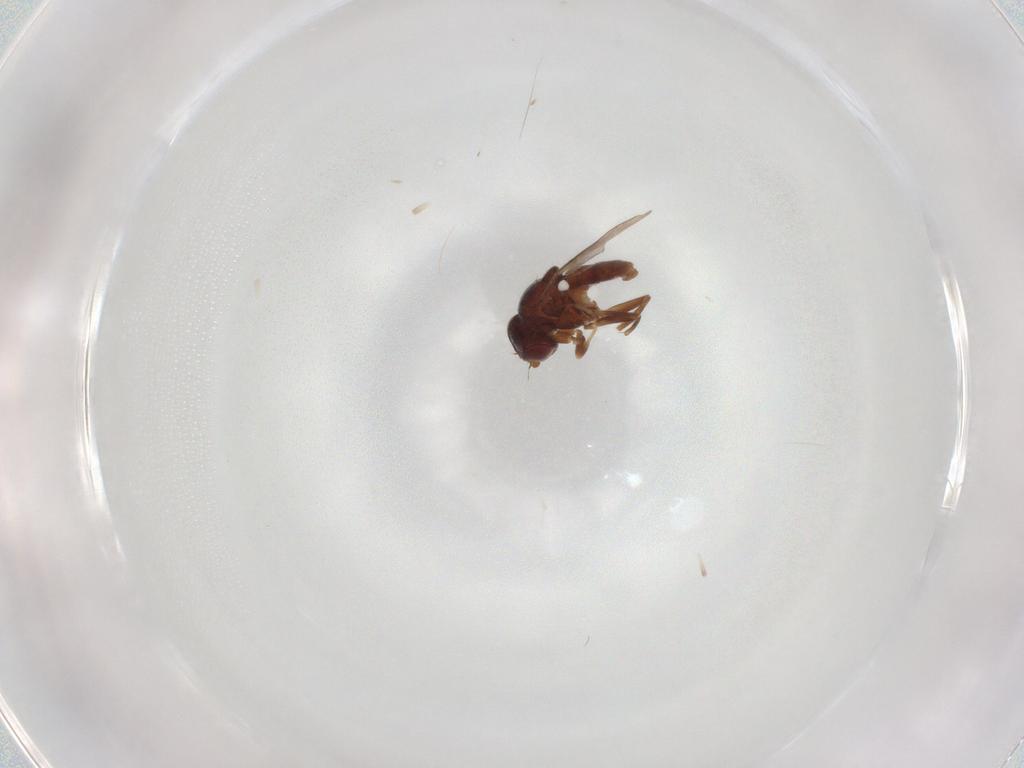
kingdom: Animalia
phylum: Arthropoda
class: Insecta
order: Diptera
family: Chloropidae
